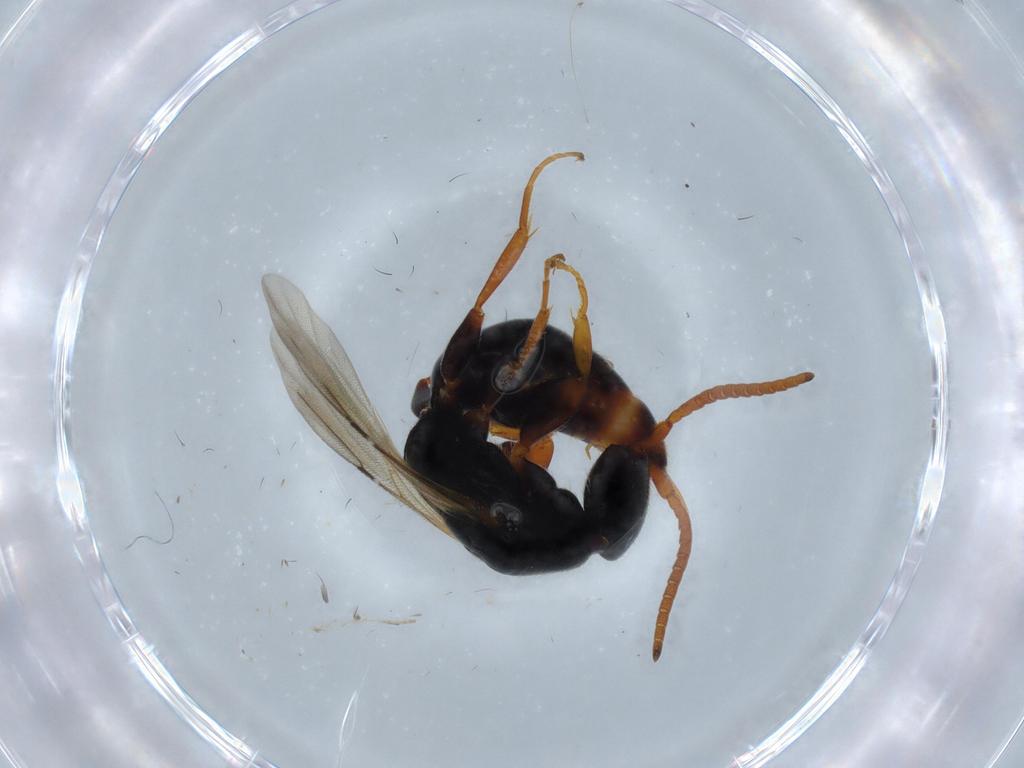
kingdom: Animalia
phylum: Arthropoda
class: Insecta
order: Hymenoptera
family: Bethylidae
